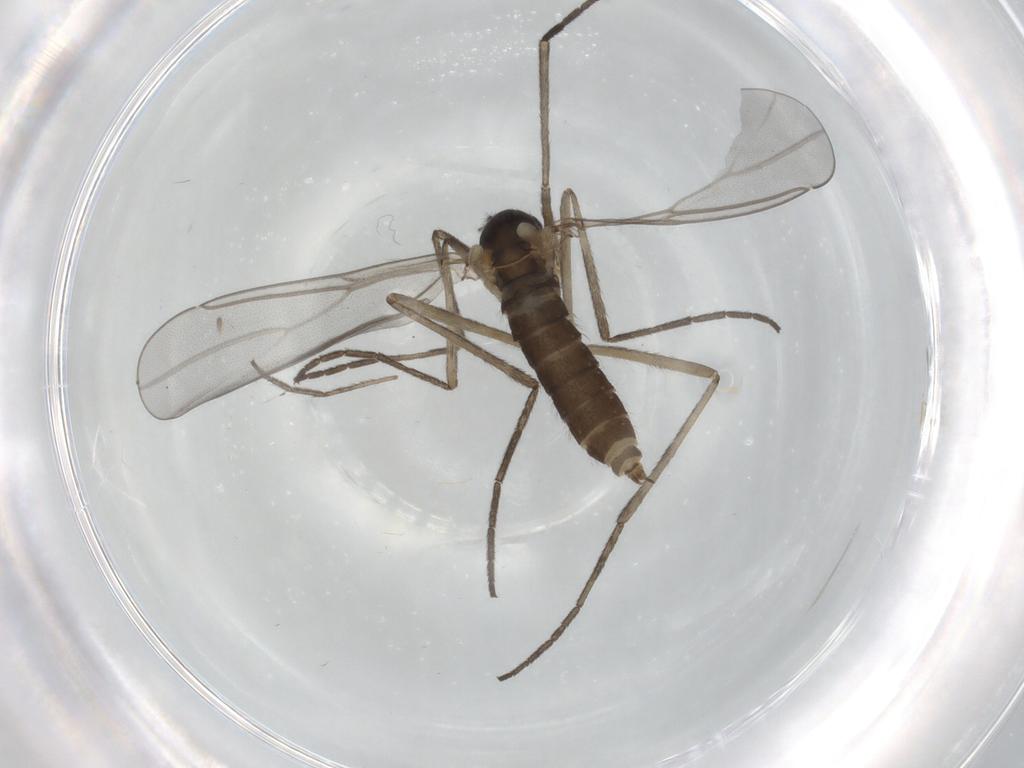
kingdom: Animalia
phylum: Arthropoda
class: Insecta
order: Diptera
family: Cecidomyiidae
